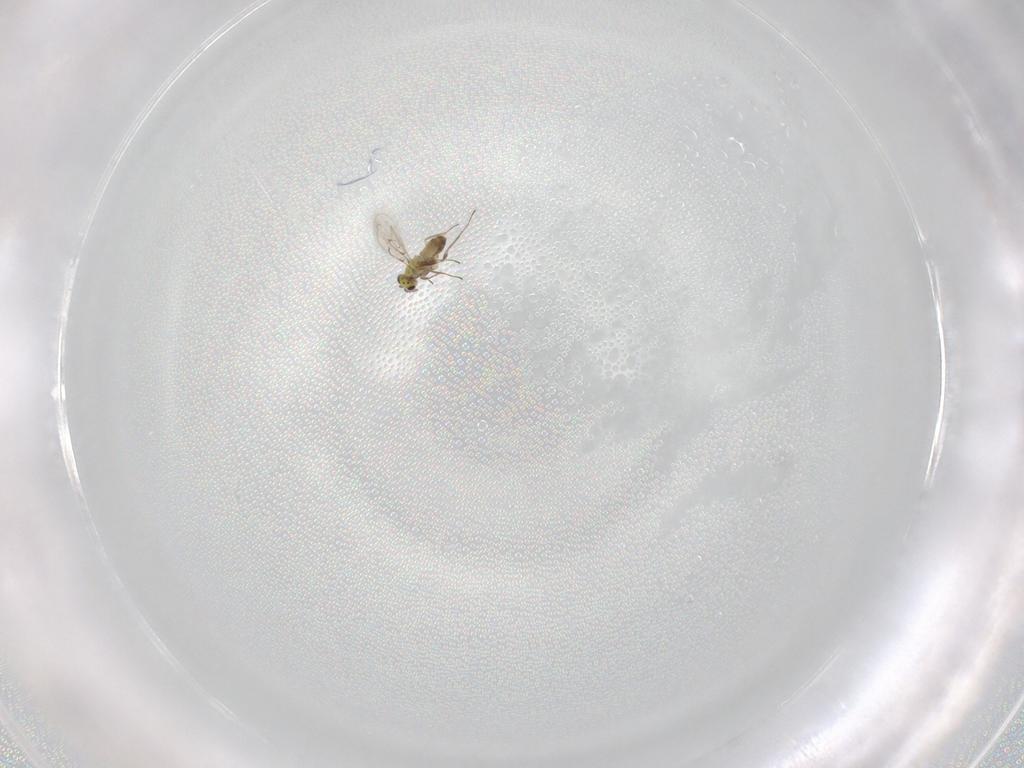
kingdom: Animalia
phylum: Arthropoda
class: Insecta
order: Hymenoptera
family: Trichogrammatidae
